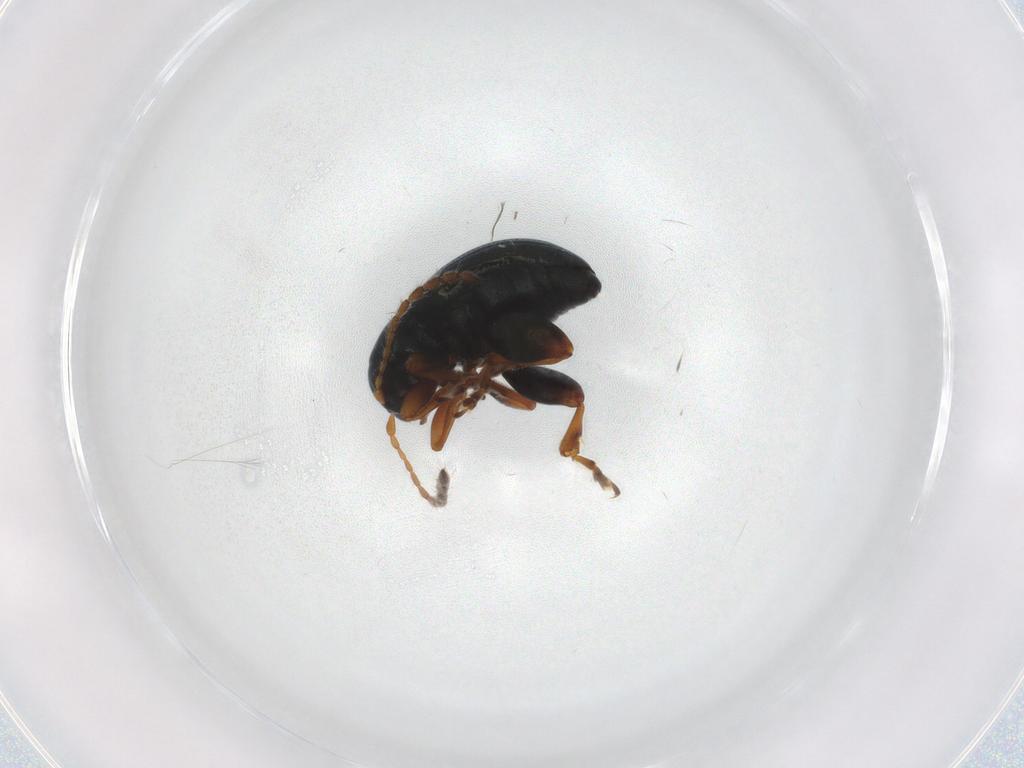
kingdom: Animalia
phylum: Arthropoda
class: Insecta
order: Coleoptera
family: Chrysomelidae
